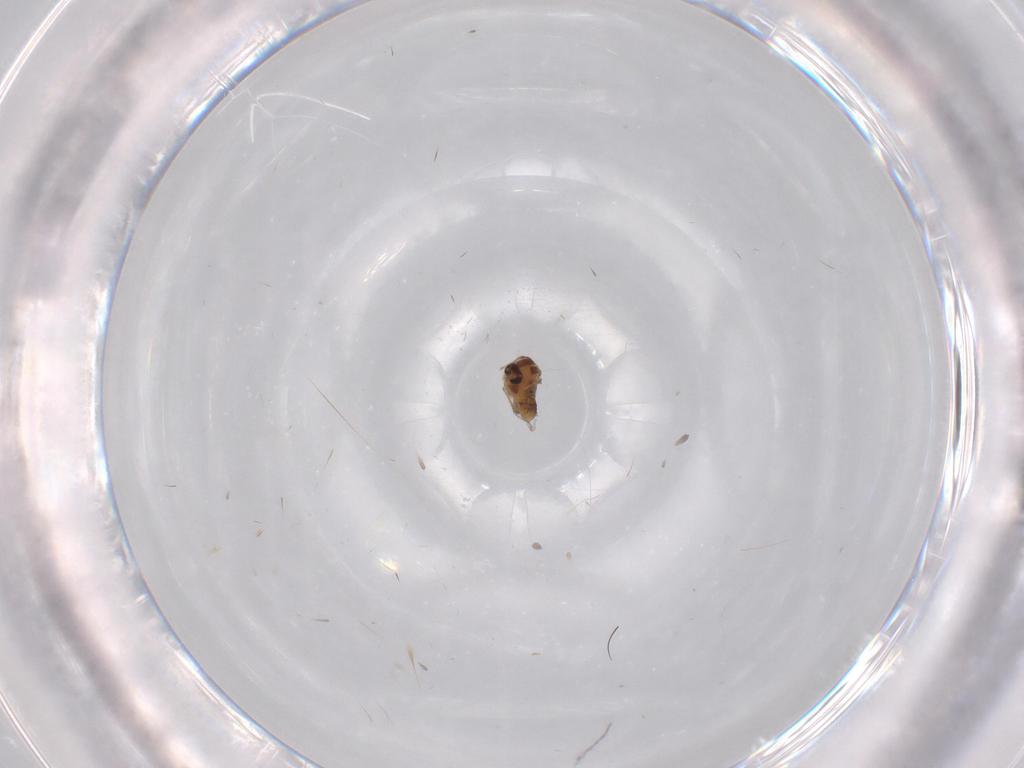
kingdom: Animalia
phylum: Arthropoda
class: Insecta
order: Diptera
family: Chironomidae
